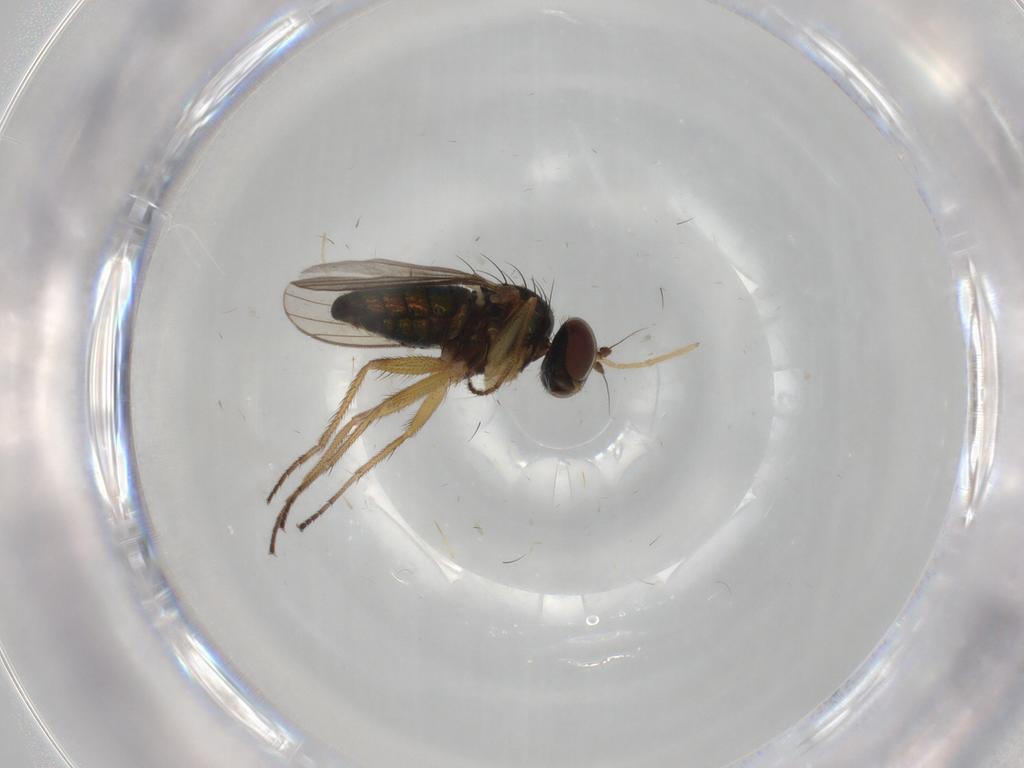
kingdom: Animalia
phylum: Arthropoda
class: Insecta
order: Diptera
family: Chironomidae
